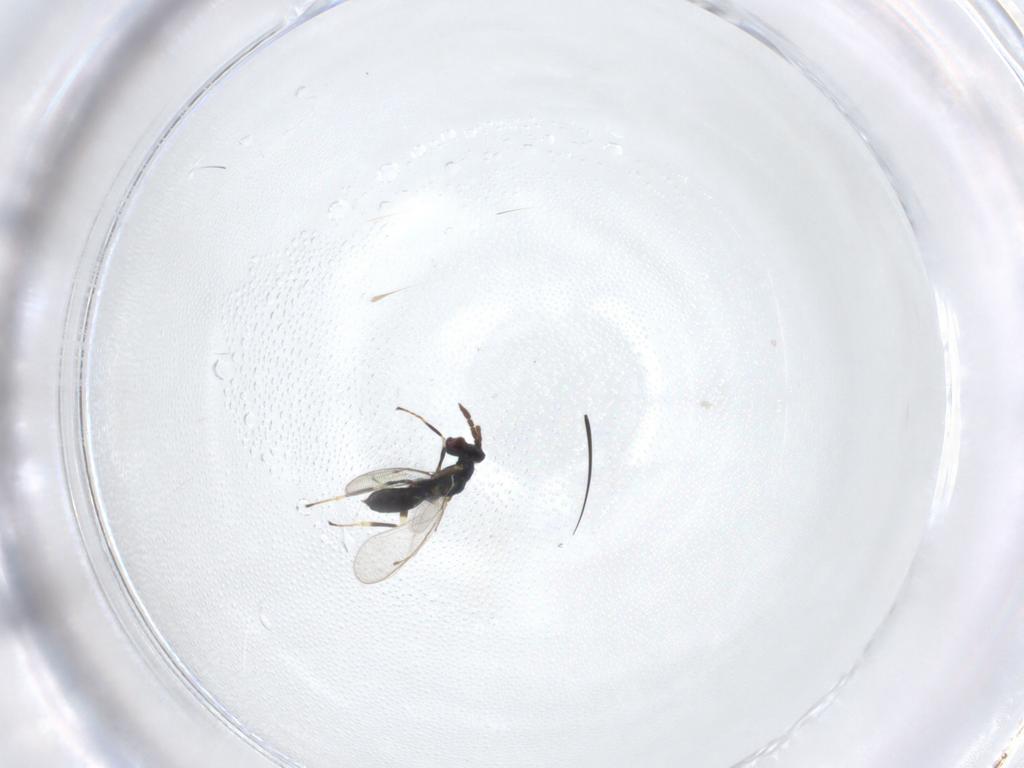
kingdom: Animalia
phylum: Arthropoda
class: Insecta
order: Hymenoptera
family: Eulophidae
